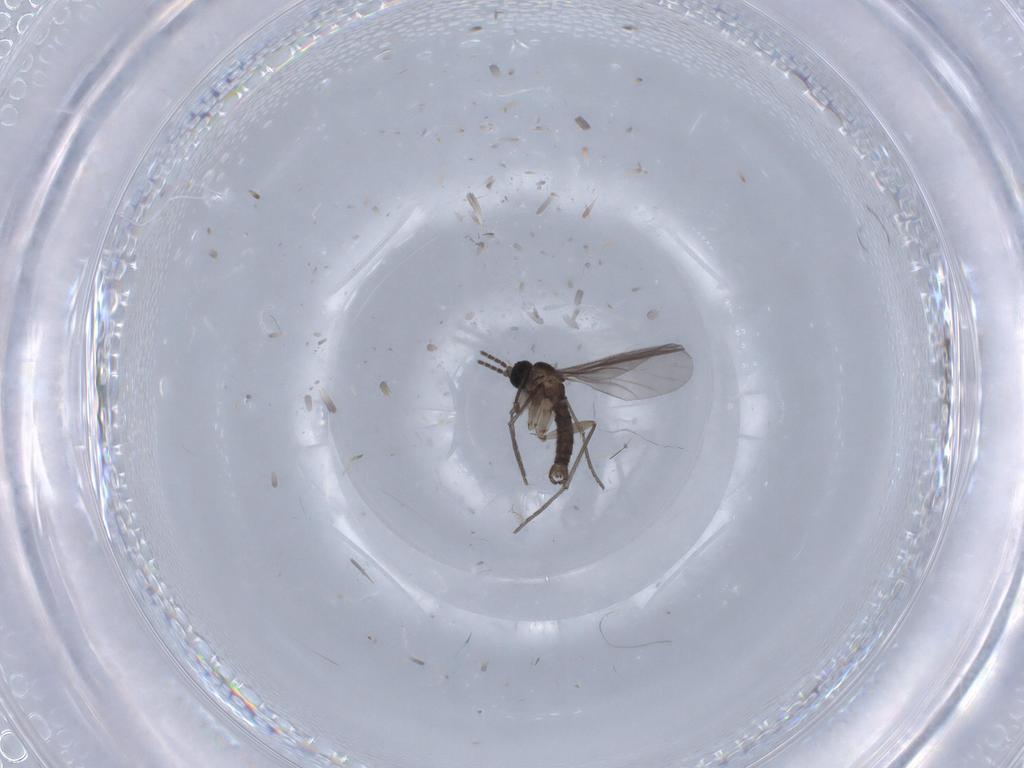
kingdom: Animalia
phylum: Arthropoda
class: Insecta
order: Diptera
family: Sciaridae
